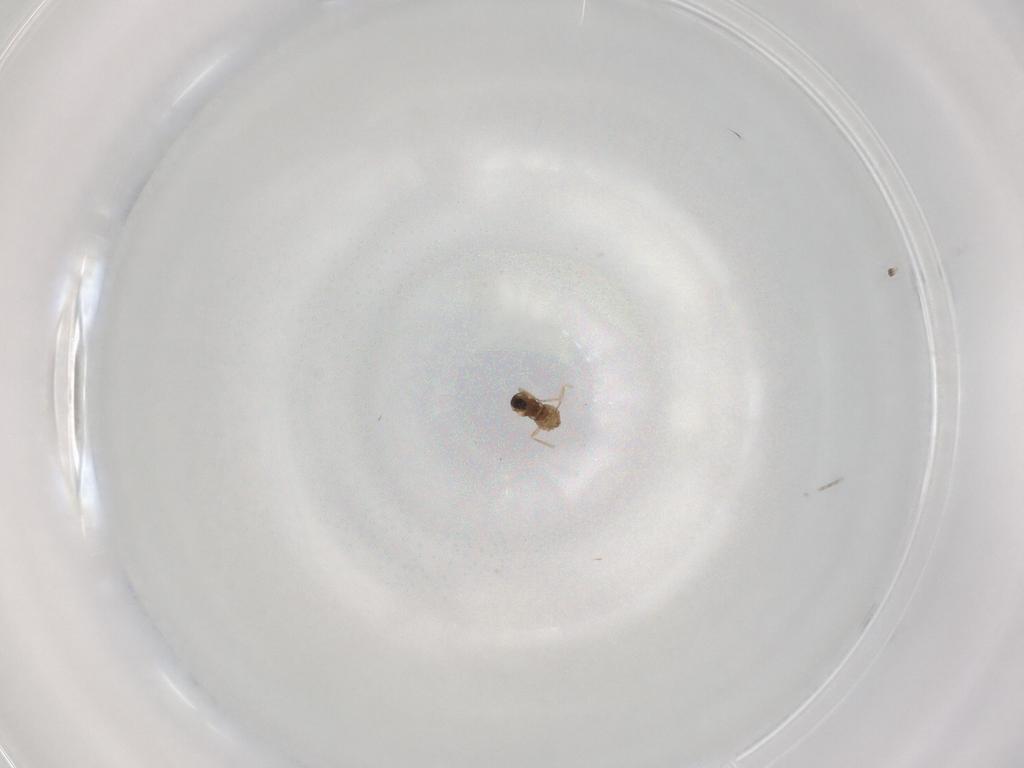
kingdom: Animalia
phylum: Arthropoda
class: Insecta
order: Diptera
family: Cecidomyiidae
